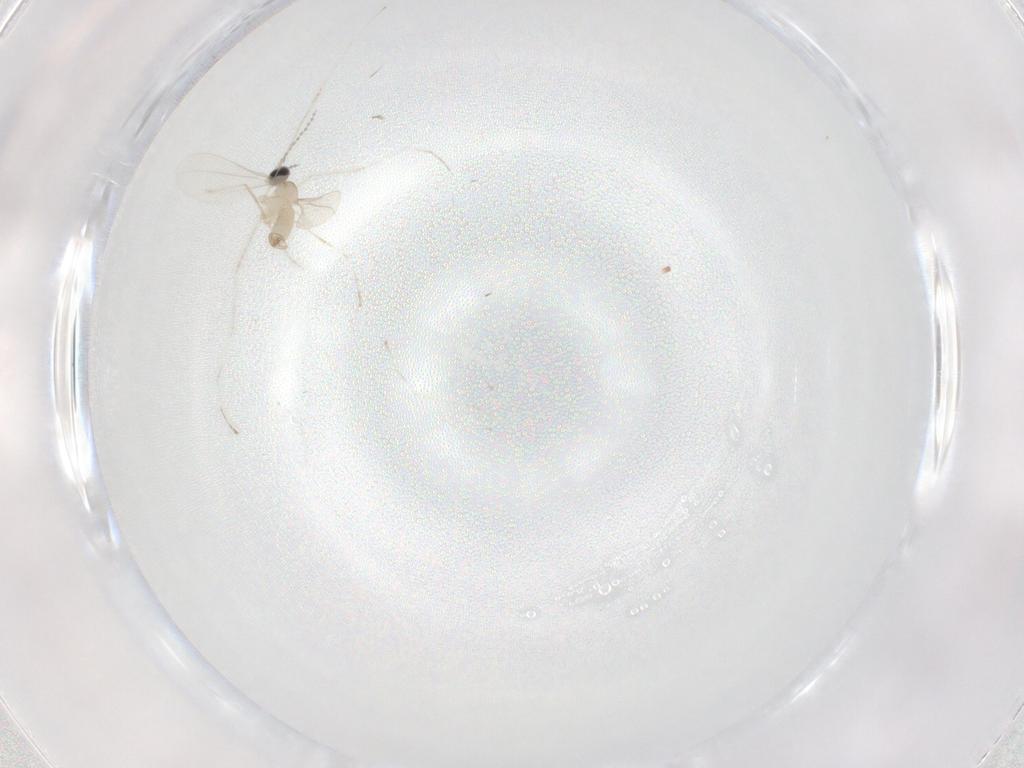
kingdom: Animalia
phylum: Arthropoda
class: Insecta
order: Diptera
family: Cecidomyiidae
